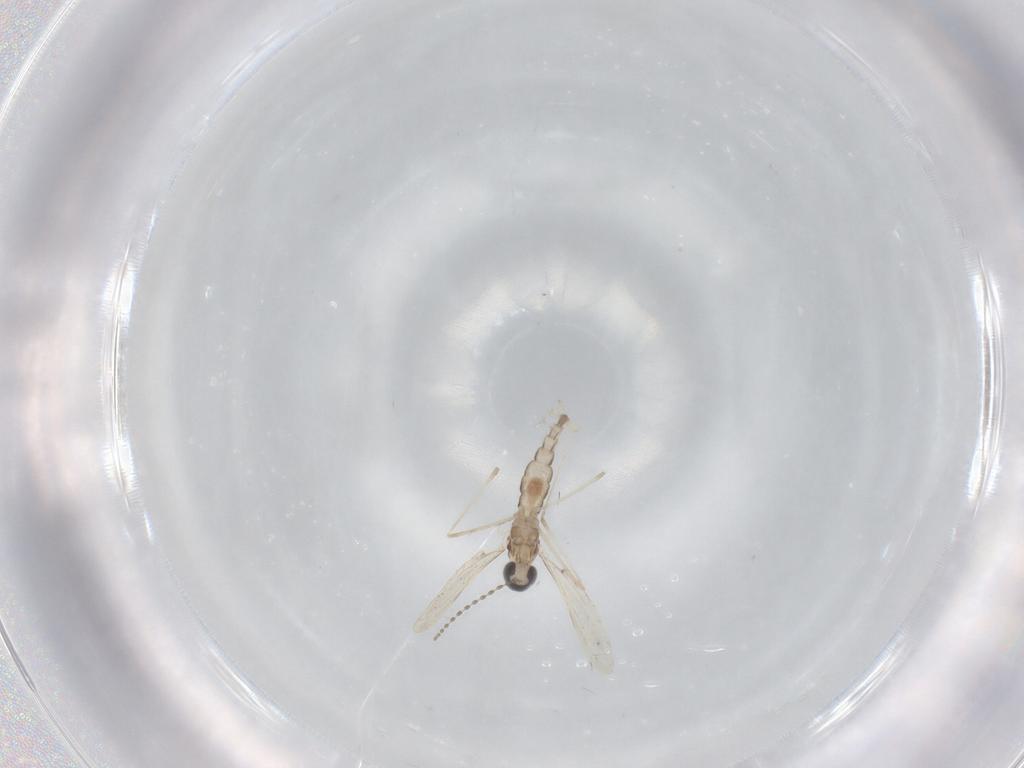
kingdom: Animalia
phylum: Arthropoda
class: Insecta
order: Diptera
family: Cecidomyiidae
